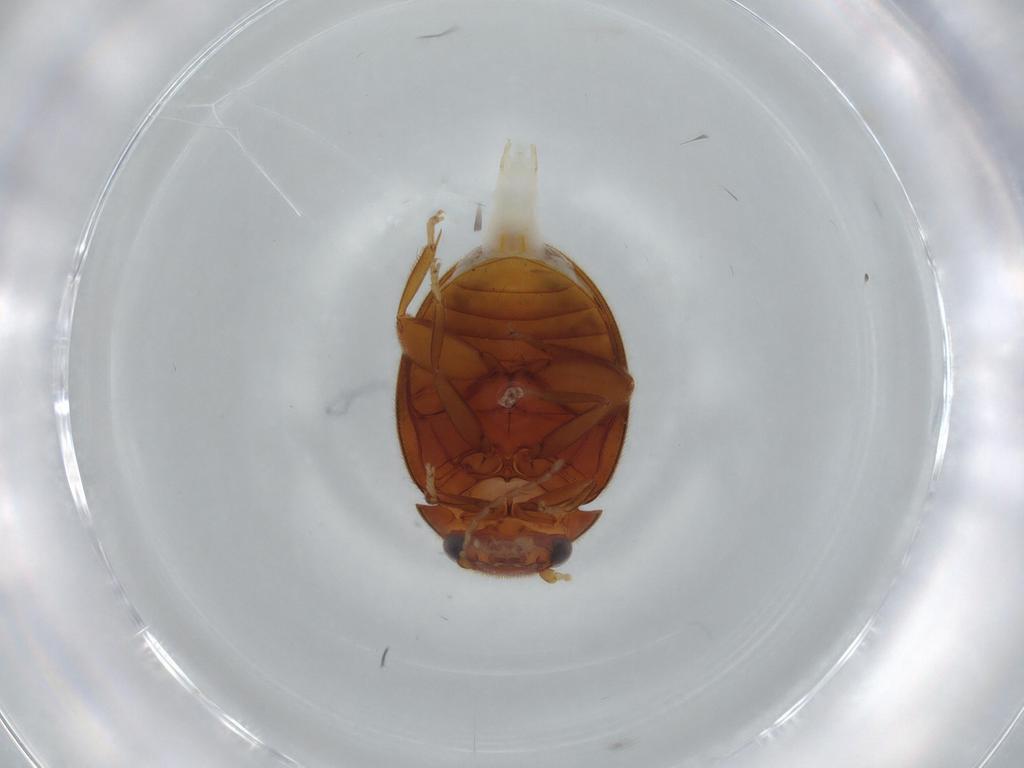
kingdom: Animalia
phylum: Arthropoda
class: Insecta
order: Coleoptera
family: Scirtidae
